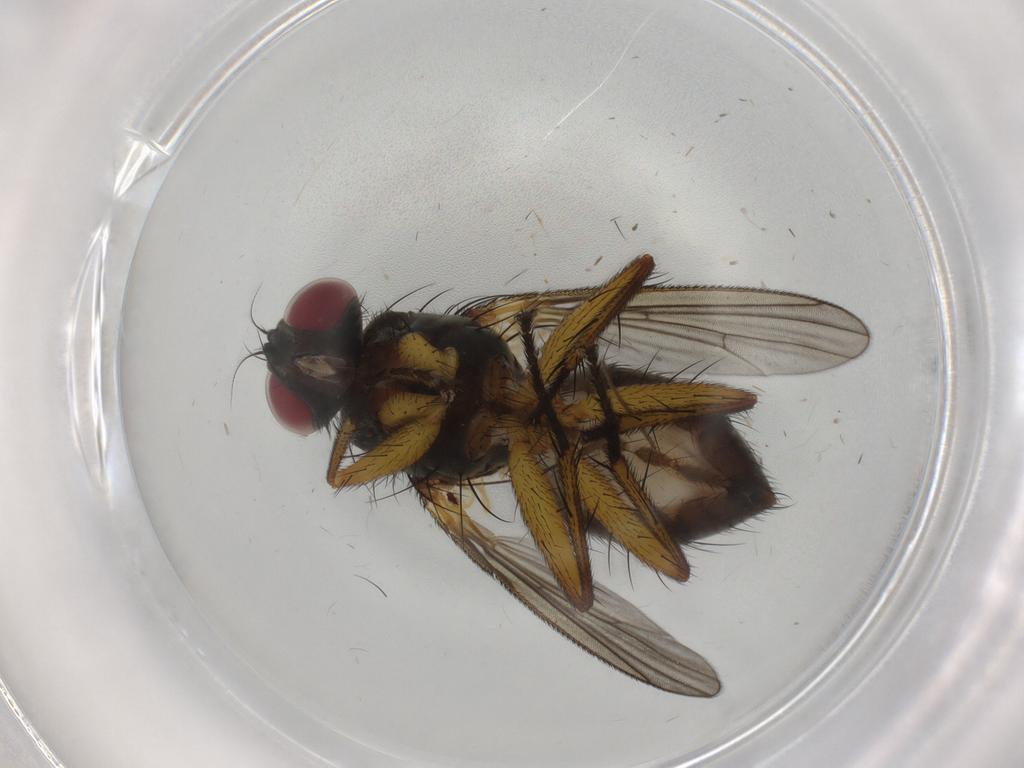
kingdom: Animalia
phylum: Arthropoda
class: Insecta
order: Diptera
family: Muscidae
